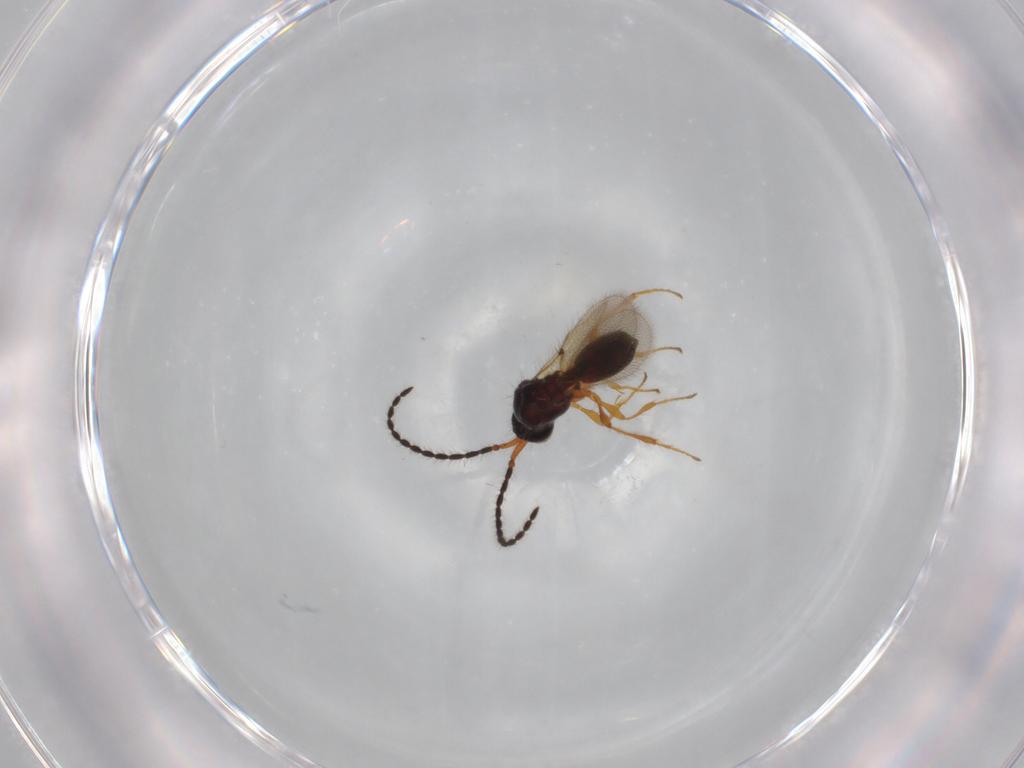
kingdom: Animalia
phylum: Arthropoda
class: Insecta
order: Hymenoptera
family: Diapriidae
